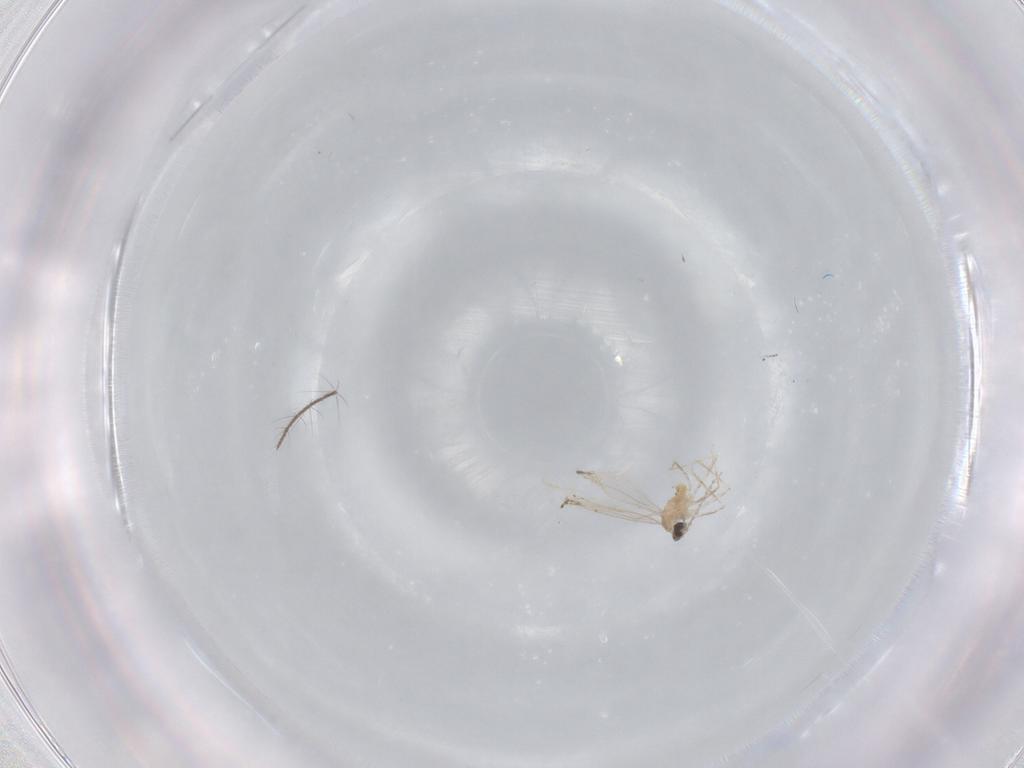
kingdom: Animalia
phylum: Arthropoda
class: Insecta
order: Diptera
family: Cecidomyiidae
